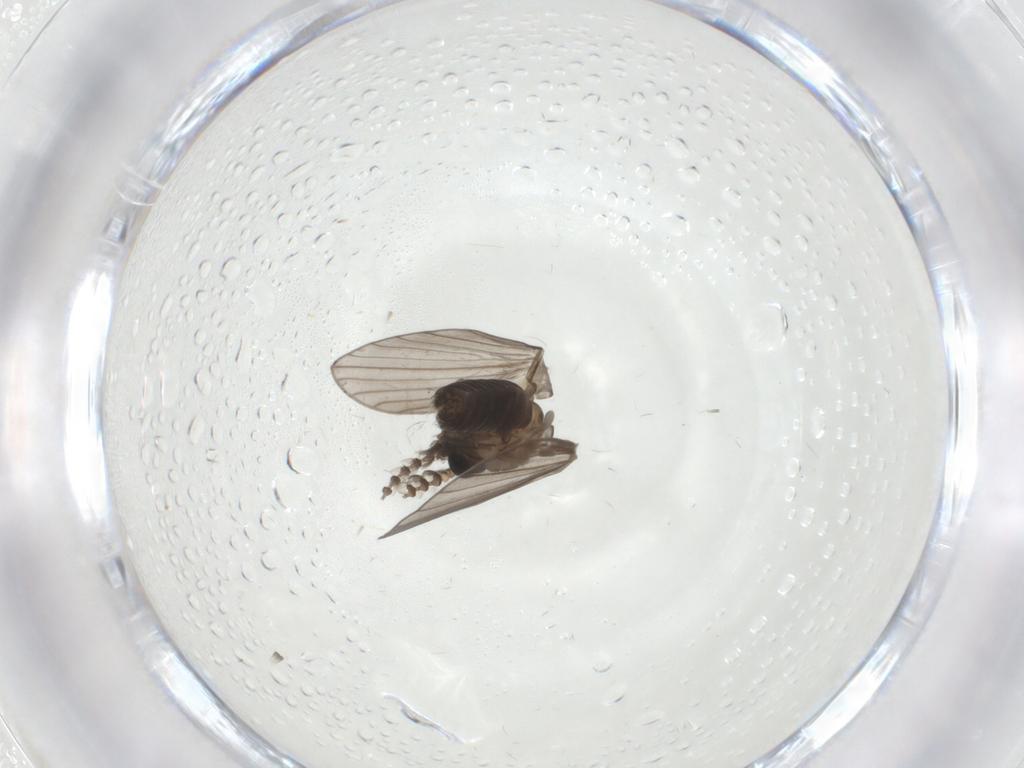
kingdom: Animalia
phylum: Arthropoda
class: Insecta
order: Diptera
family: Psychodidae
